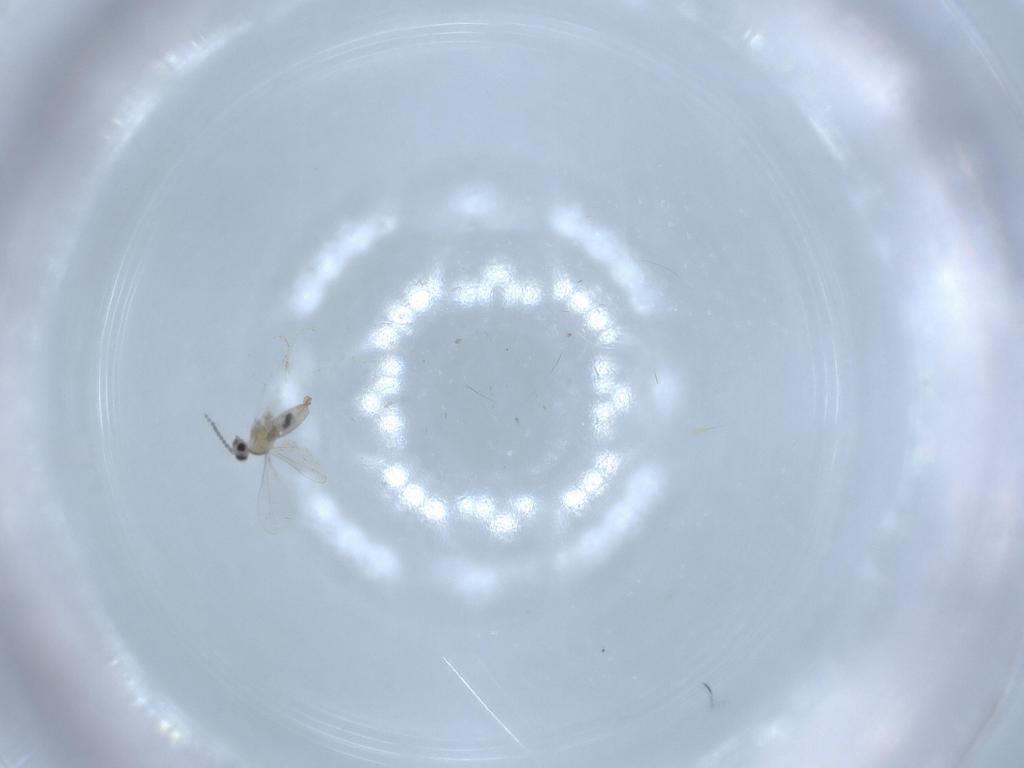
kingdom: Animalia
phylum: Arthropoda
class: Insecta
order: Diptera
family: Cecidomyiidae
